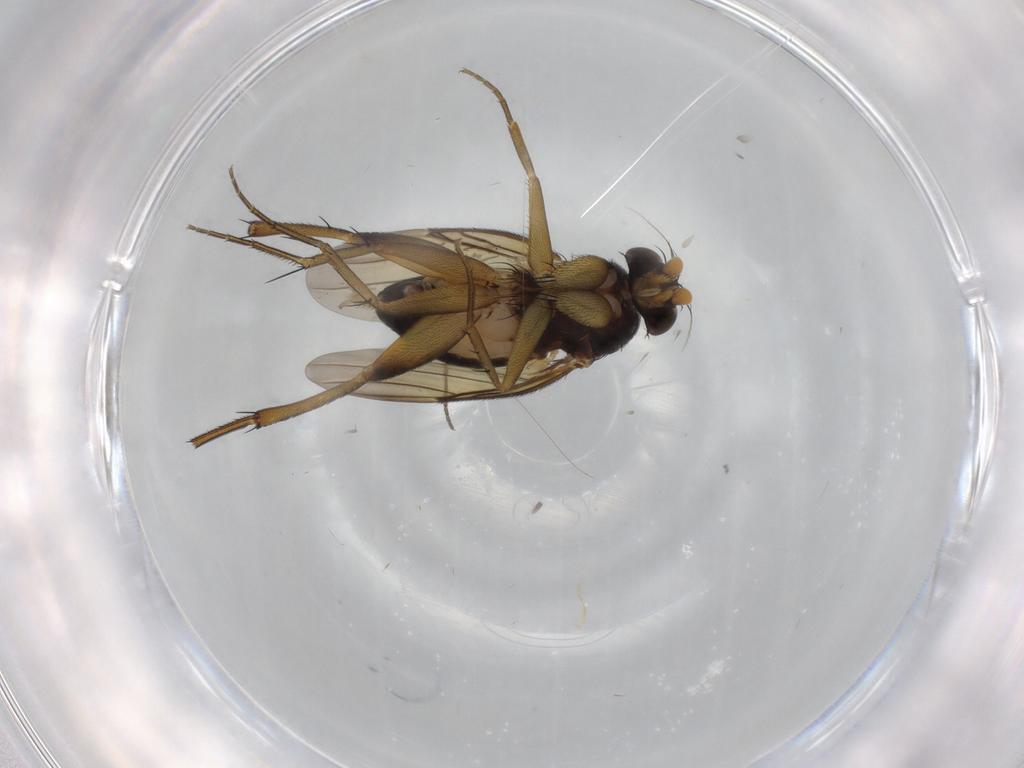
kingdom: Animalia
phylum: Arthropoda
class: Insecta
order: Diptera
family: Phoridae
